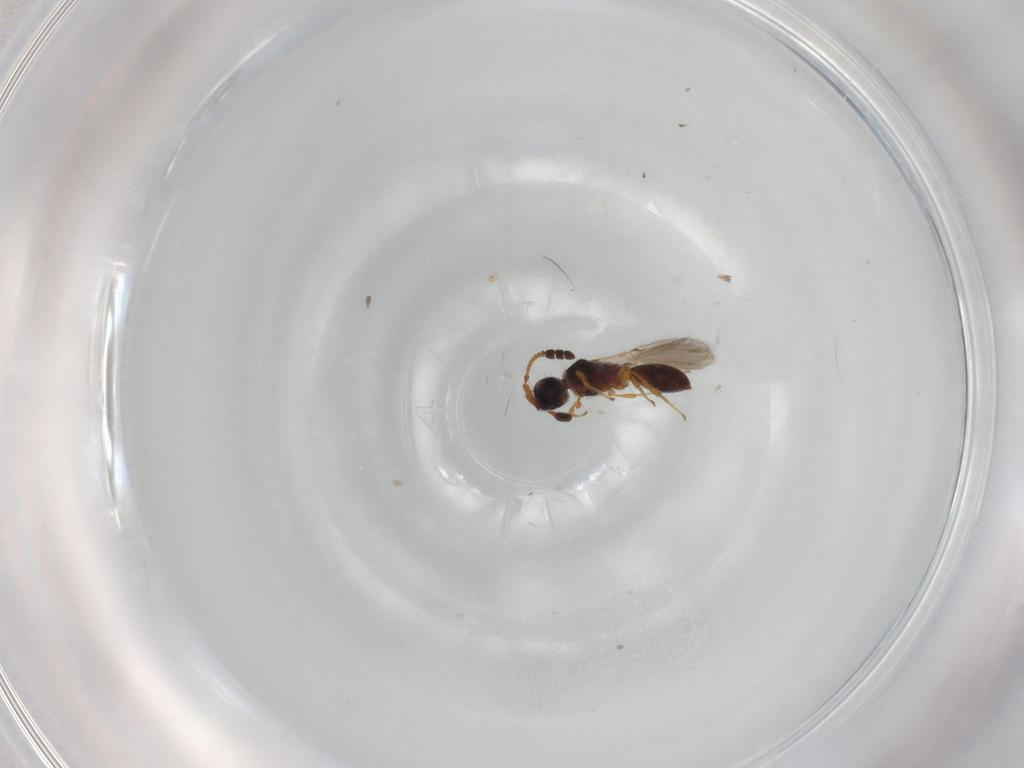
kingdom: Animalia
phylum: Arthropoda
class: Insecta
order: Hymenoptera
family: Diapriidae
